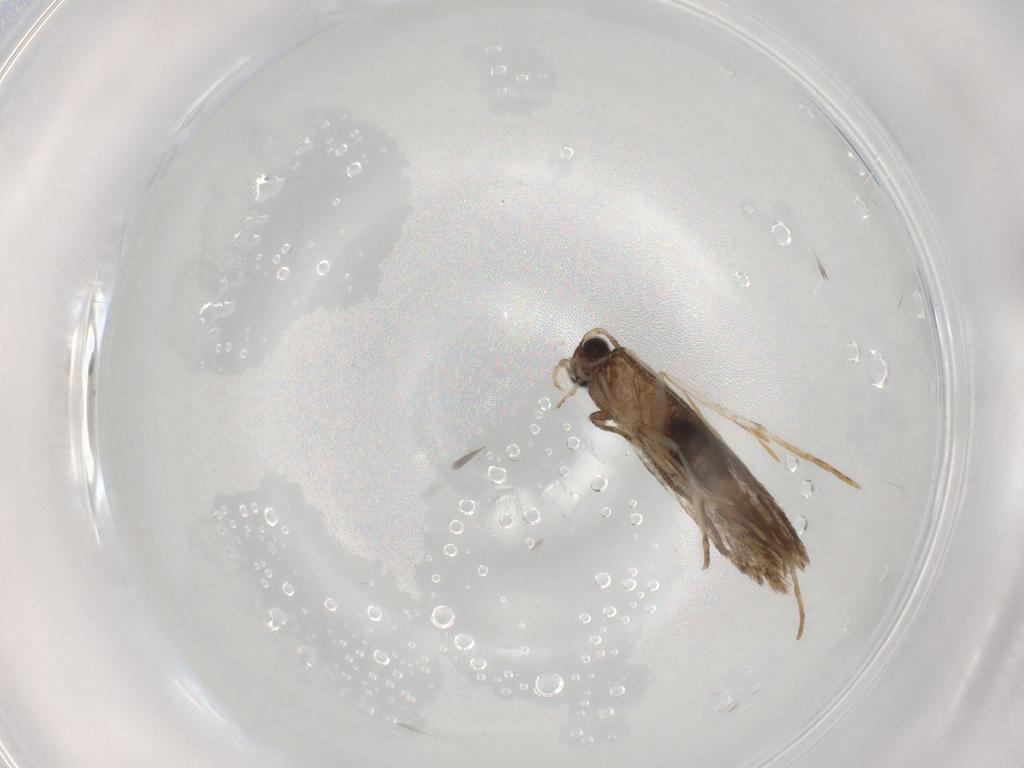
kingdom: Animalia
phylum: Arthropoda
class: Insecta
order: Lepidoptera
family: Tineidae
